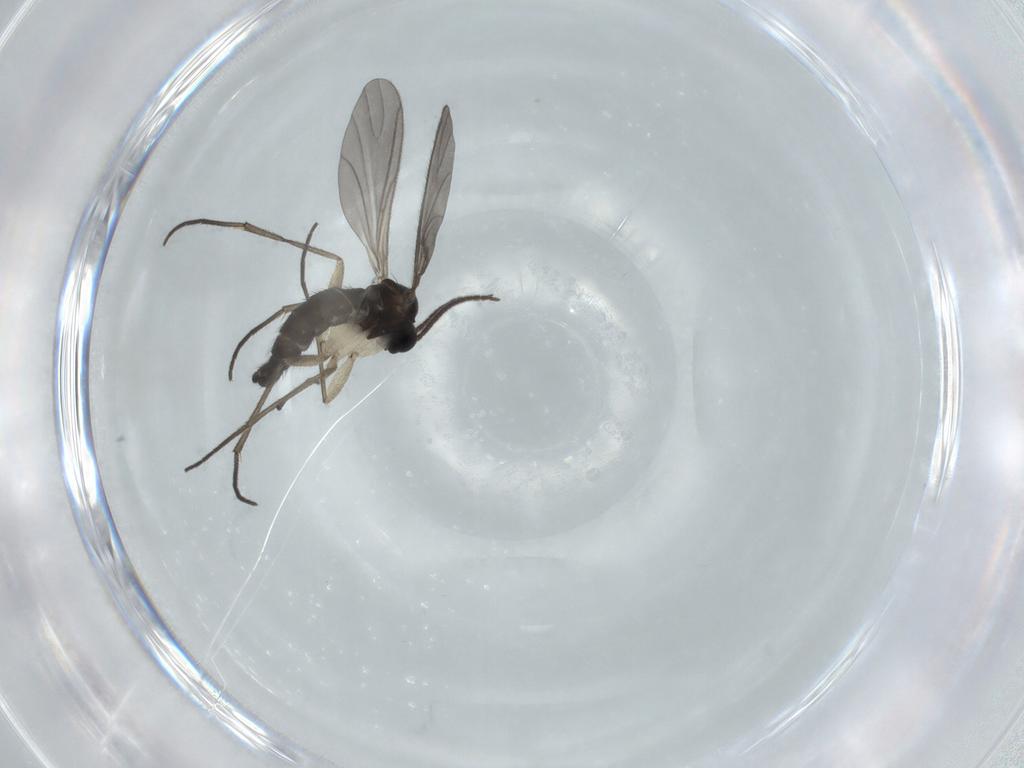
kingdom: Animalia
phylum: Arthropoda
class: Insecta
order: Diptera
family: Sciaridae
